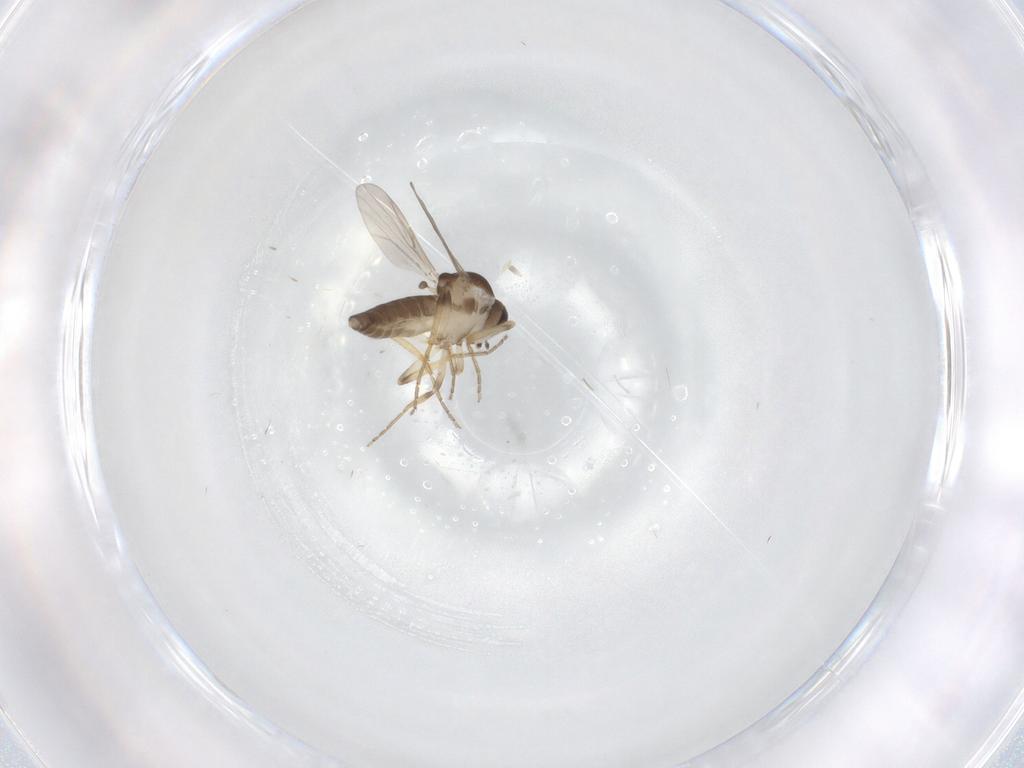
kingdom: Animalia
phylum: Arthropoda
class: Insecta
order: Diptera
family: Limoniidae
